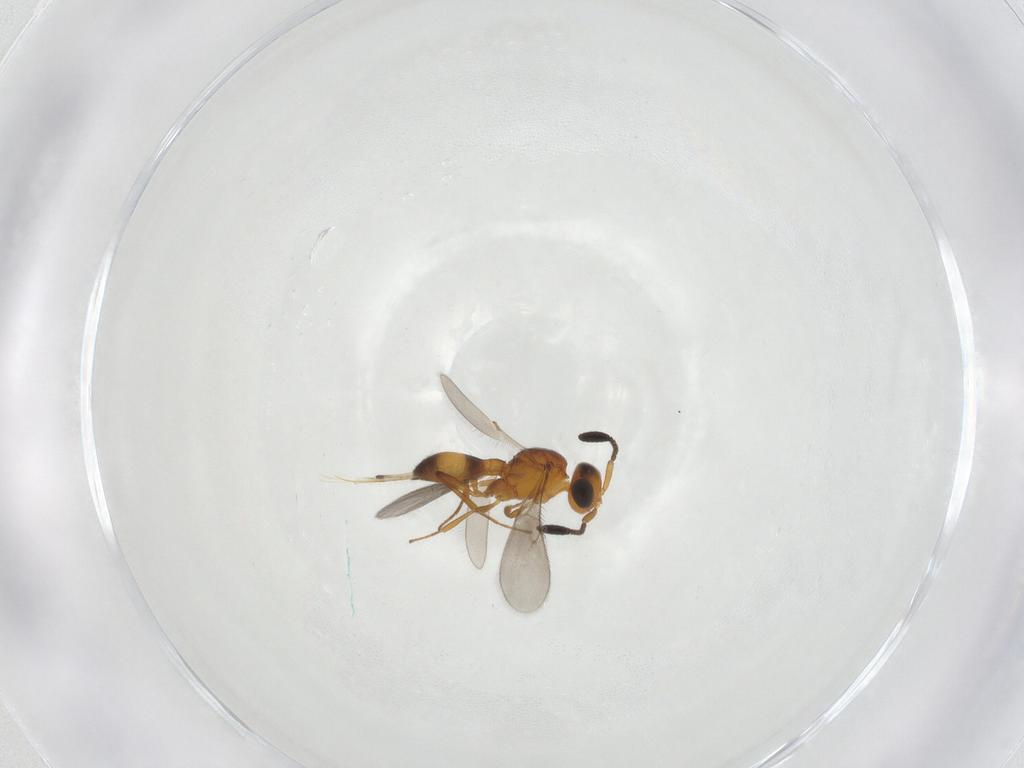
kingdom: Animalia
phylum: Arthropoda
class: Insecta
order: Hymenoptera
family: Scelionidae
